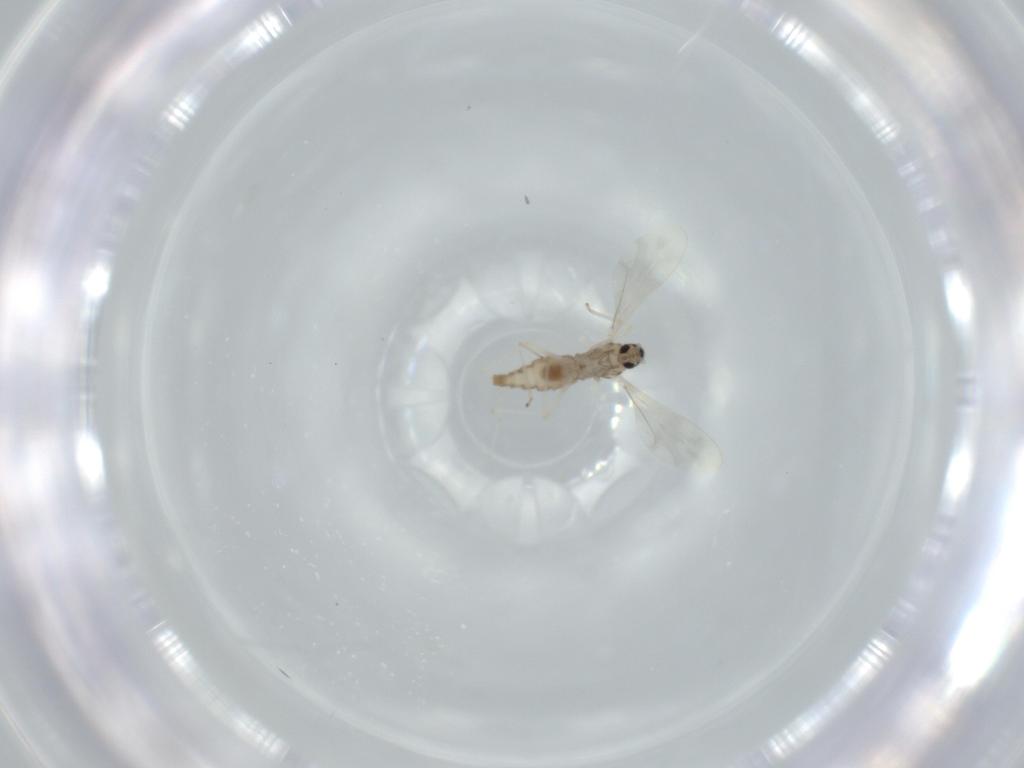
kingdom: Animalia
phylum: Arthropoda
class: Insecta
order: Diptera
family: Cecidomyiidae
